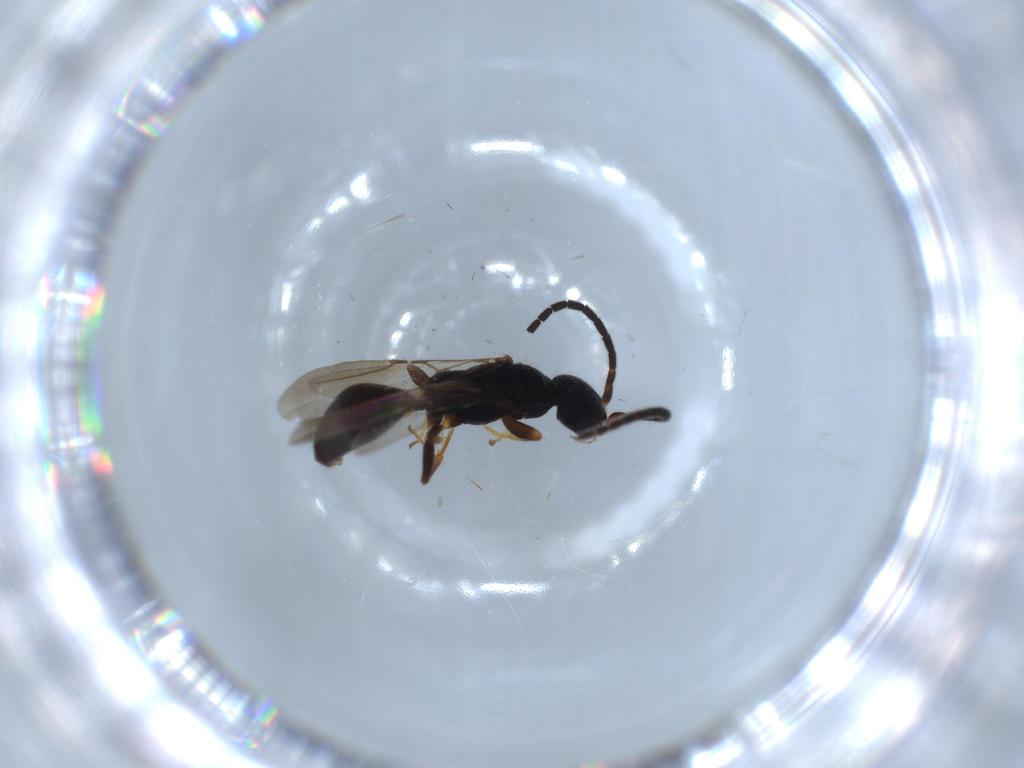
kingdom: Animalia
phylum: Arthropoda
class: Insecta
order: Hymenoptera
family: Bethylidae
